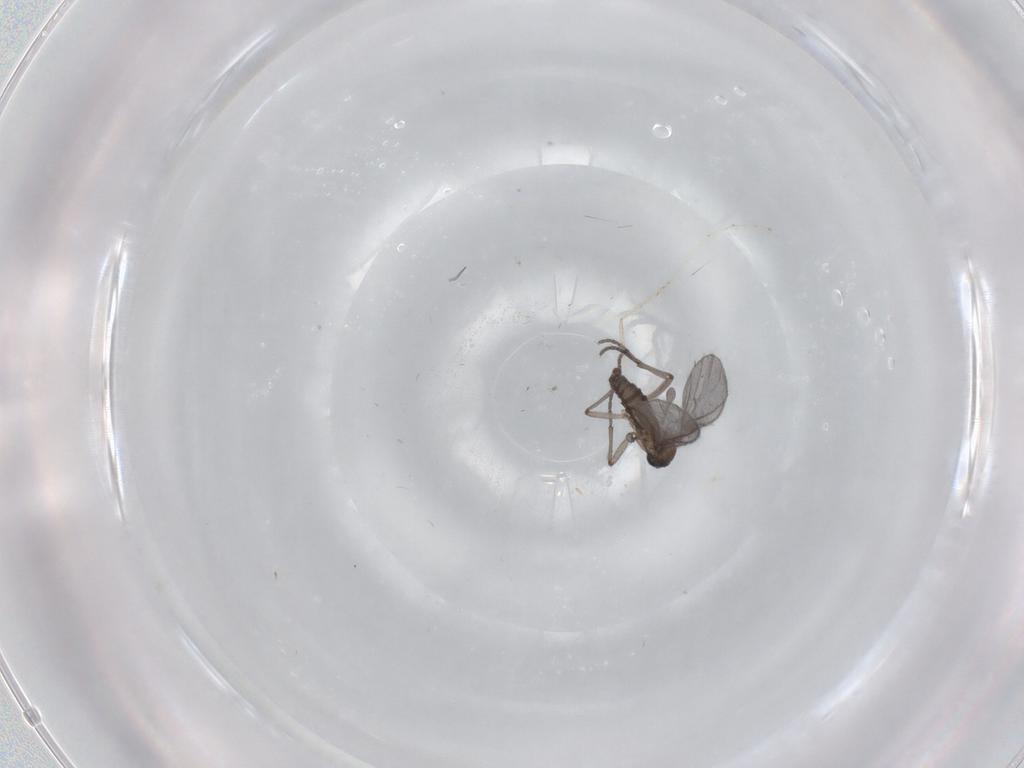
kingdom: Animalia
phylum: Arthropoda
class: Insecta
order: Diptera
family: Sciaridae
